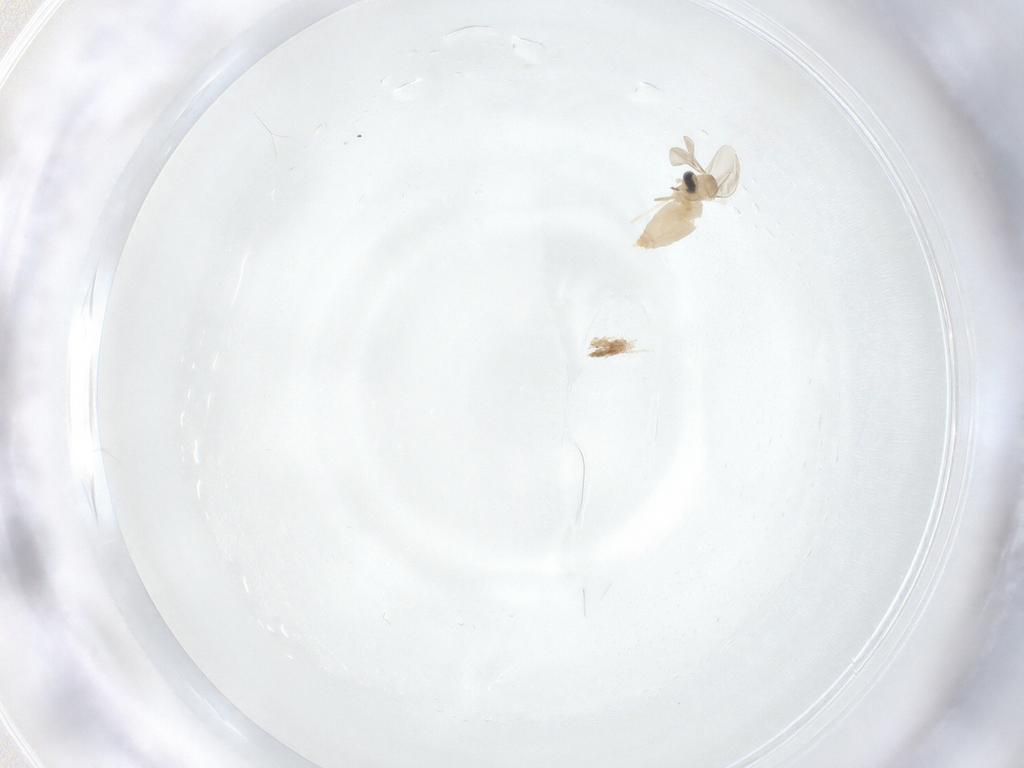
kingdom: Animalia
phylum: Arthropoda
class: Insecta
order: Diptera
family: Cecidomyiidae
